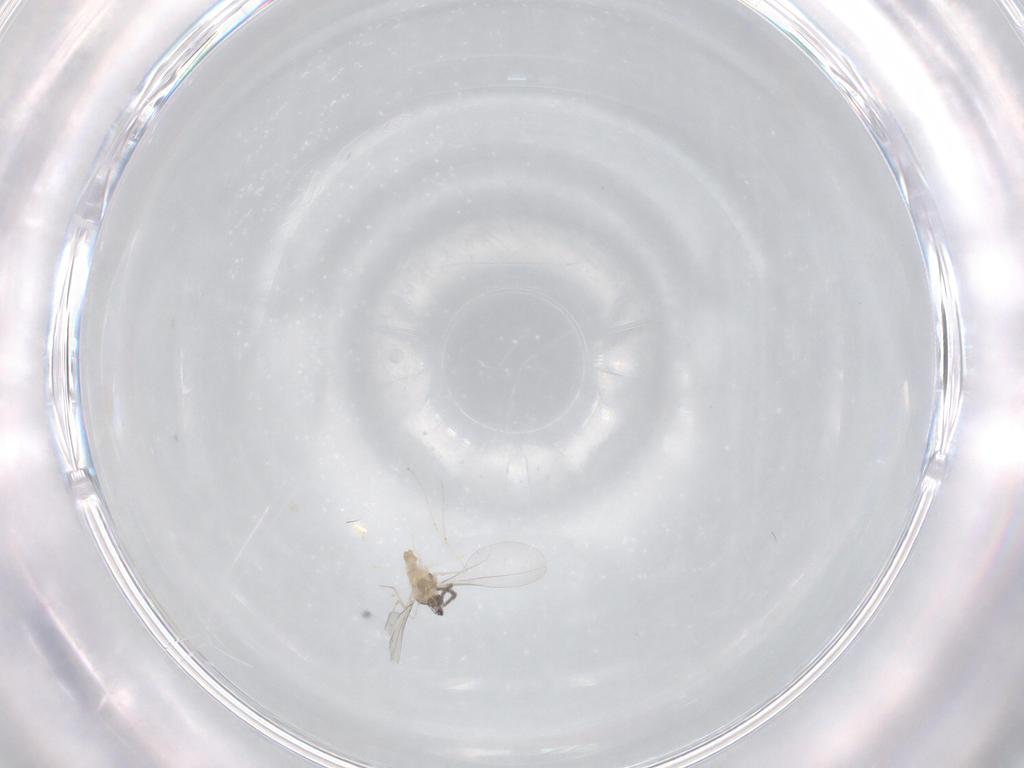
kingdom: Animalia
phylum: Arthropoda
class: Insecta
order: Diptera
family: Cecidomyiidae
